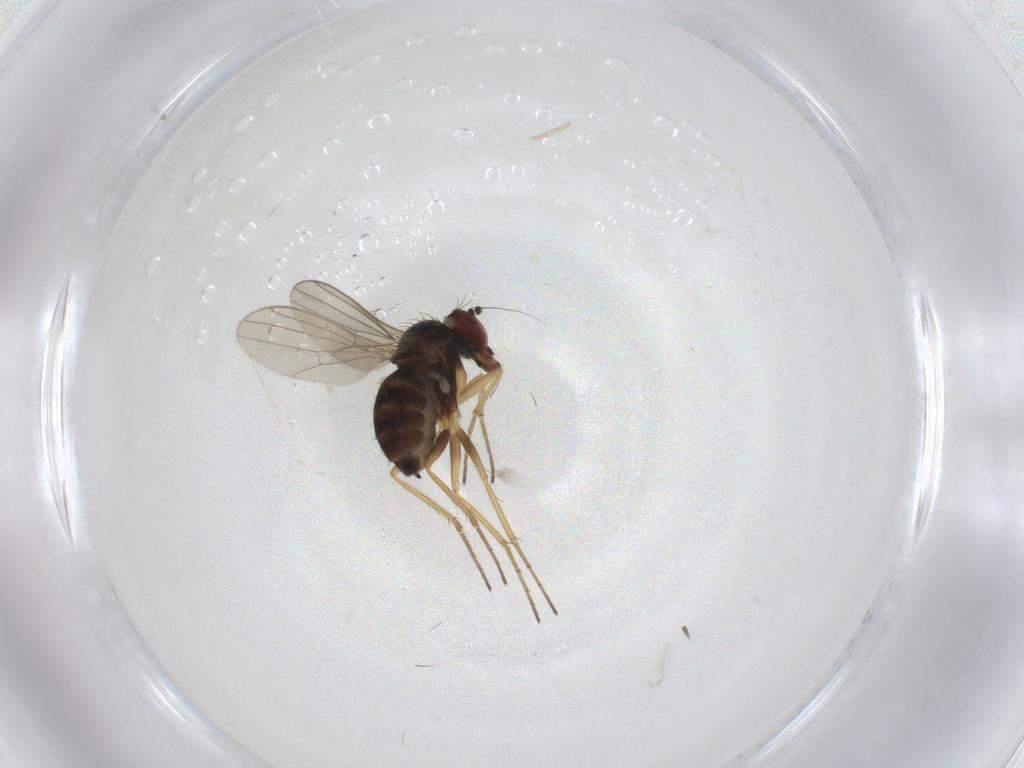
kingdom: Animalia
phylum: Arthropoda
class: Insecta
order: Diptera
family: Dolichopodidae
